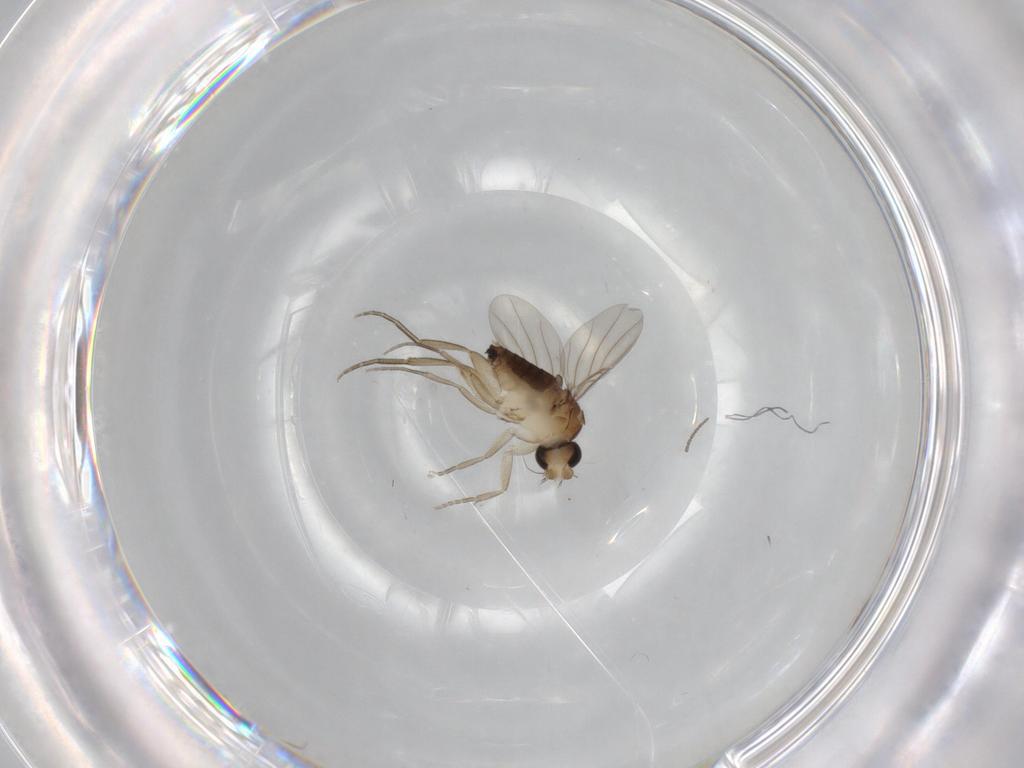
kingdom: Animalia
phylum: Arthropoda
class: Insecta
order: Diptera
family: Phoridae
